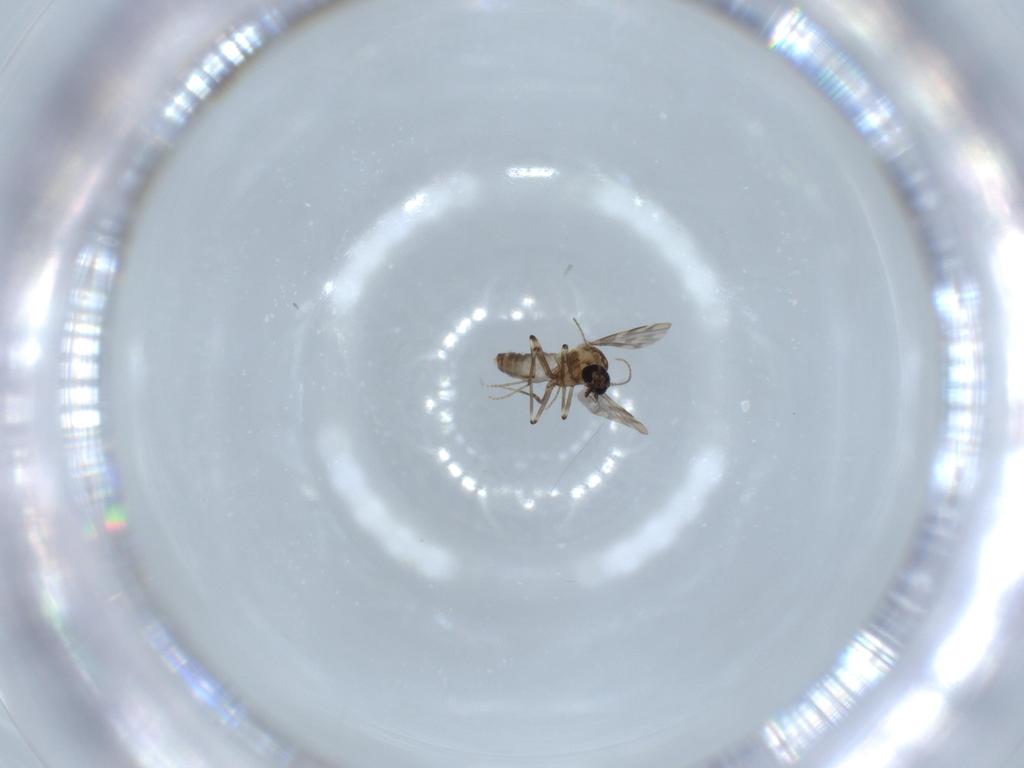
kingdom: Animalia
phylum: Arthropoda
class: Insecta
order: Diptera
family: Ceratopogonidae
